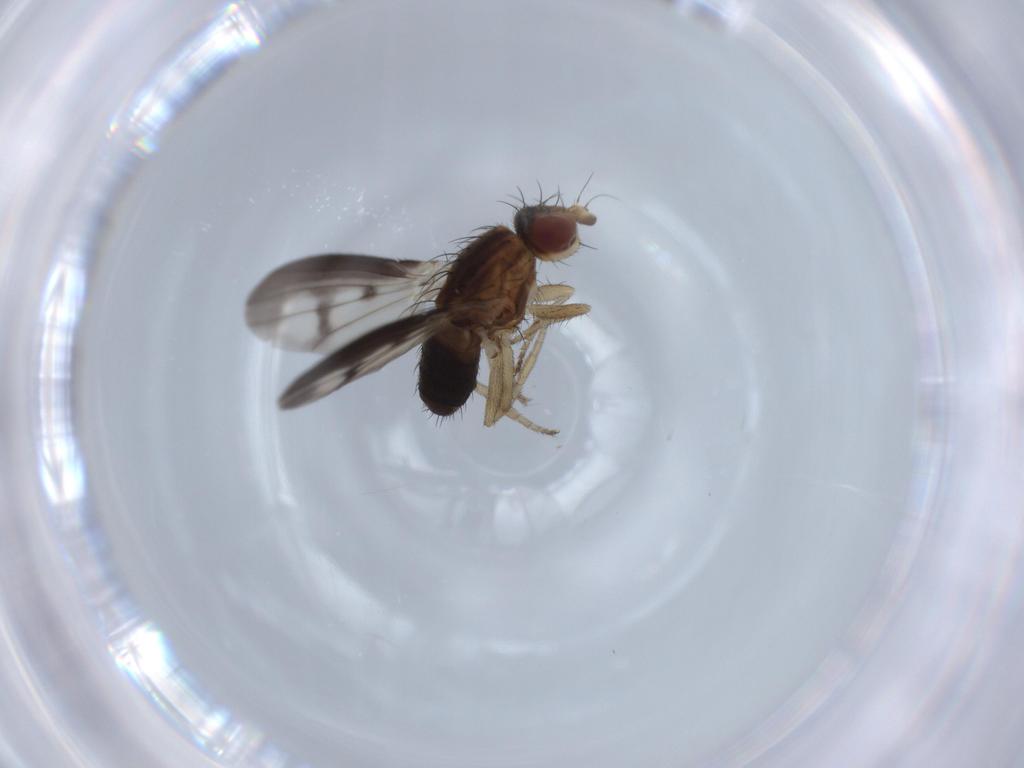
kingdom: Animalia
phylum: Arthropoda
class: Insecta
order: Diptera
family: Heleomyzidae
